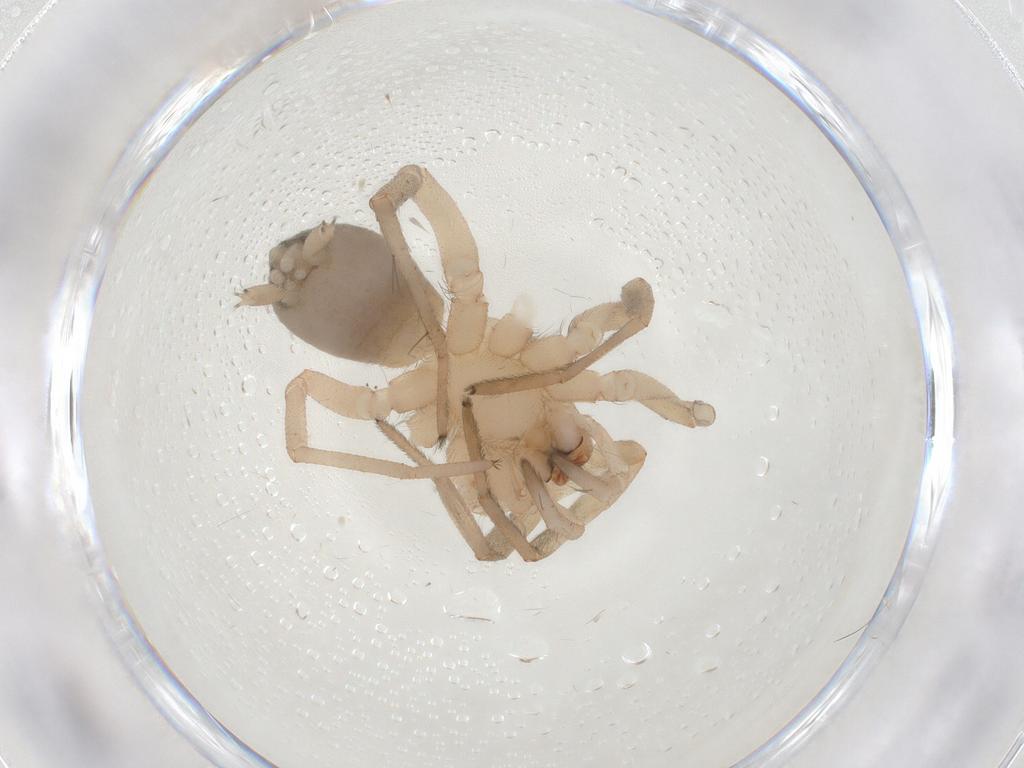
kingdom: Animalia
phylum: Arthropoda
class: Arachnida
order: Araneae
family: Gnaphosidae
